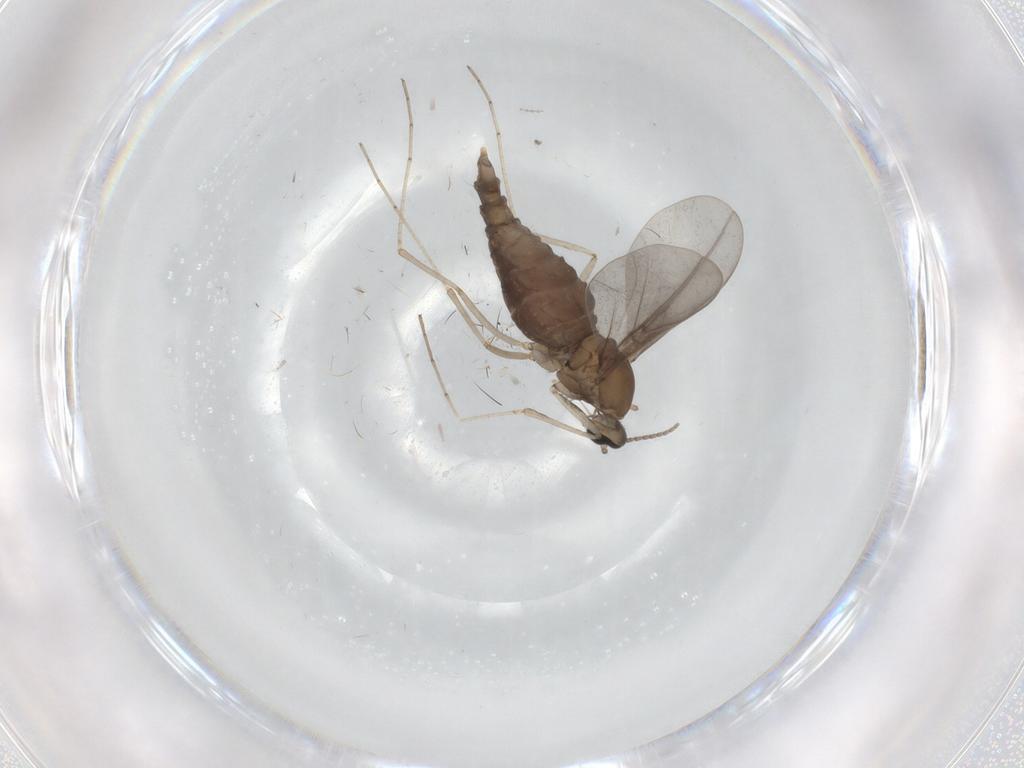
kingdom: Animalia
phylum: Arthropoda
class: Insecta
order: Diptera
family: Cecidomyiidae
